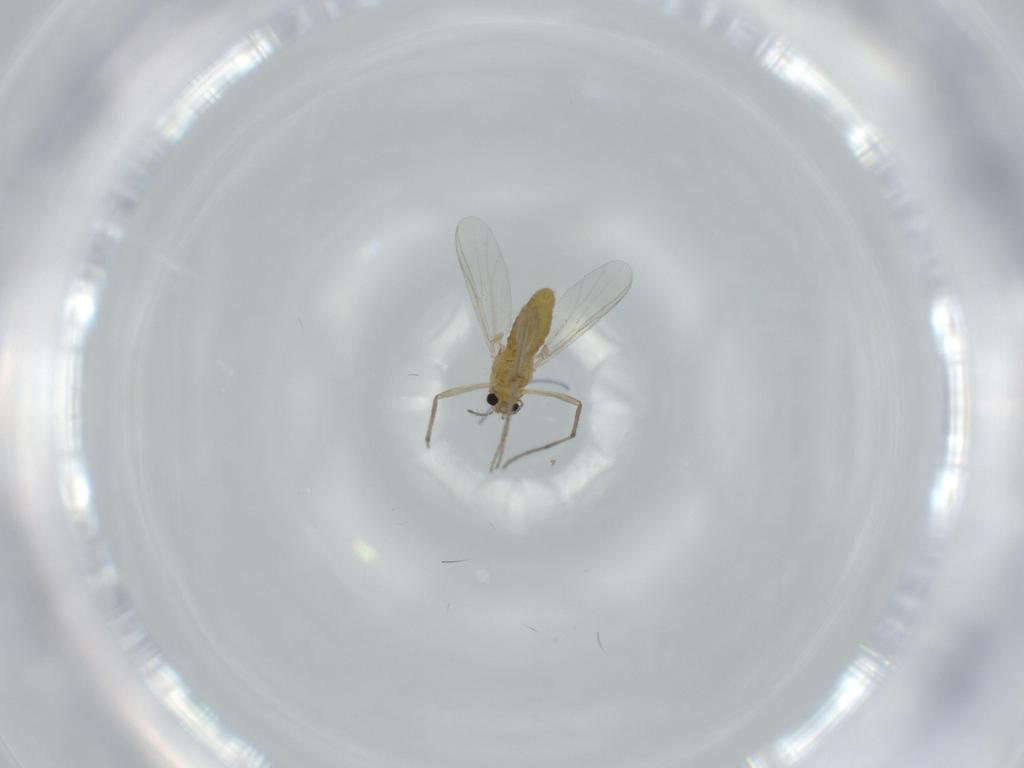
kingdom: Animalia
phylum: Arthropoda
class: Insecta
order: Diptera
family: Chironomidae
